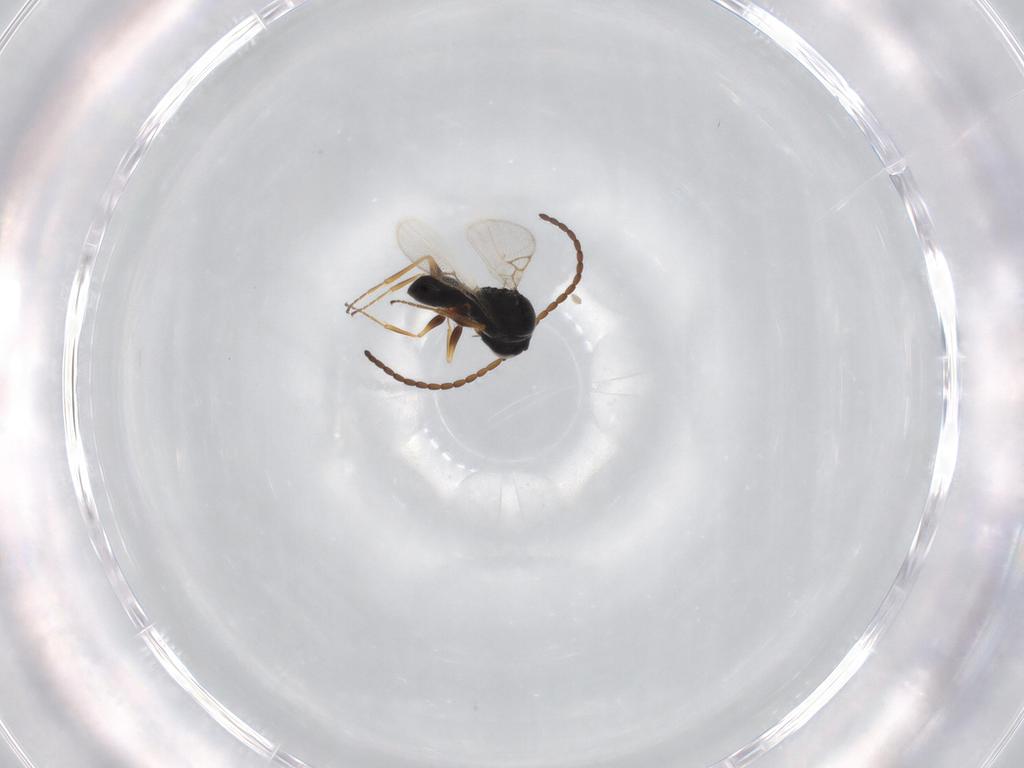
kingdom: Animalia
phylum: Arthropoda
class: Insecta
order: Hymenoptera
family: Figitidae
